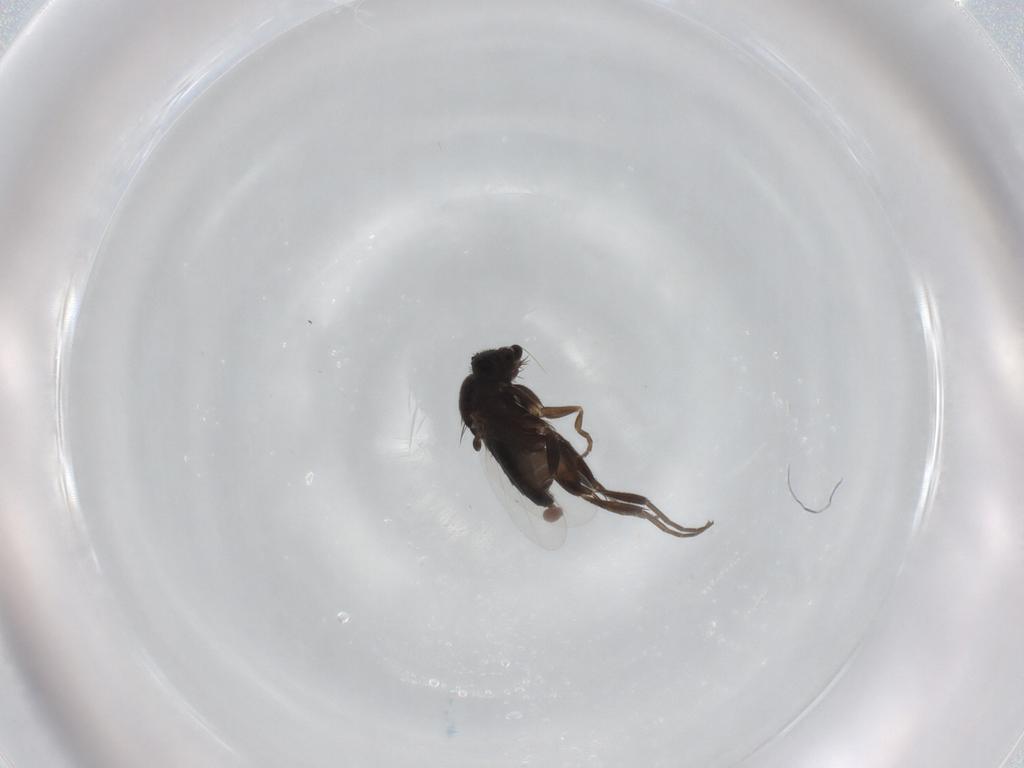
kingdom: Animalia
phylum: Arthropoda
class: Insecta
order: Diptera
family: Phoridae
